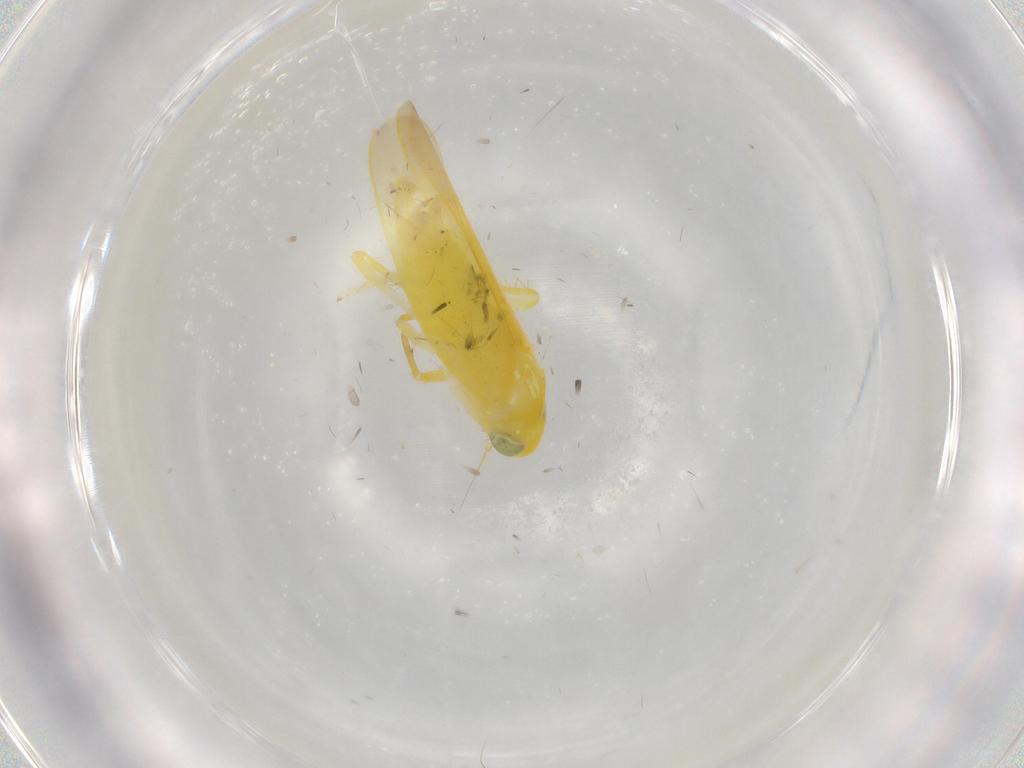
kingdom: Animalia
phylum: Arthropoda
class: Insecta
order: Hemiptera
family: Cicadellidae
